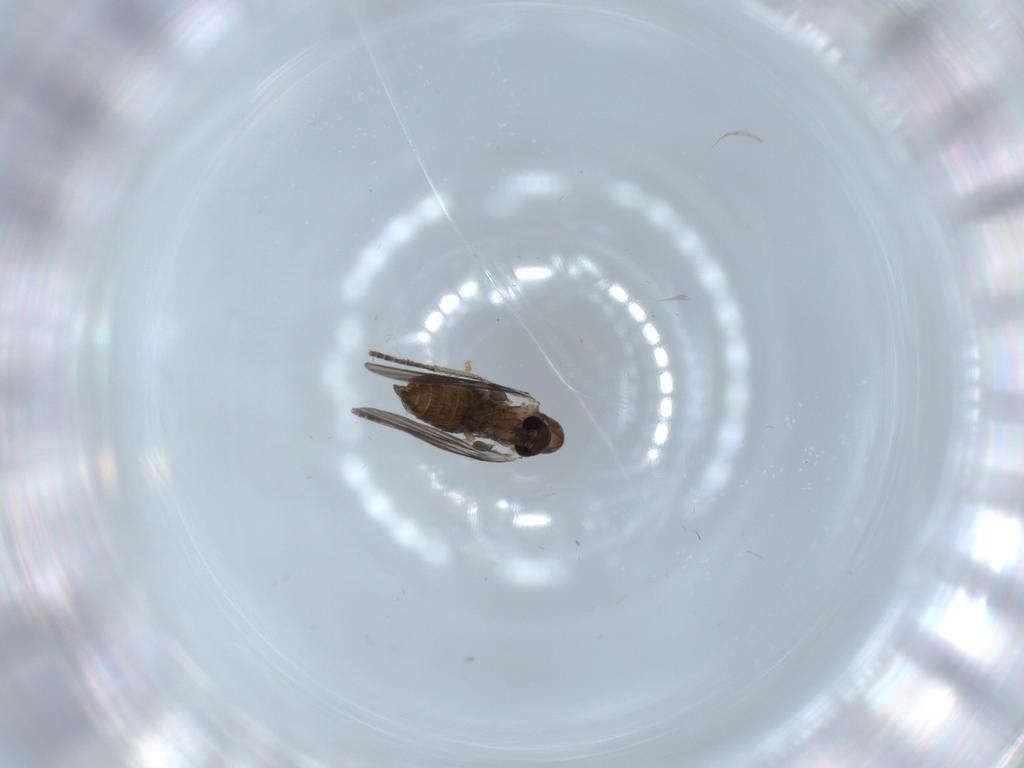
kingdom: Animalia
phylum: Arthropoda
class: Insecta
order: Diptera
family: Psychodidae
